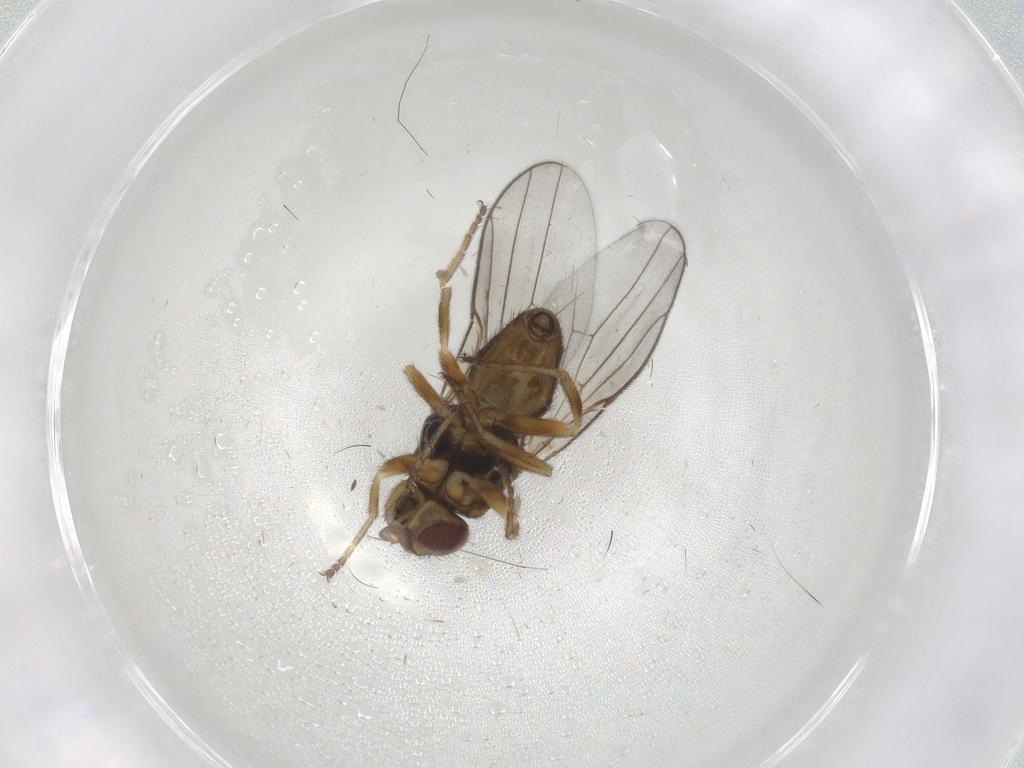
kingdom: Animalia
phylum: Arthropoda
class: Insecta
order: Diptera
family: Chloropidae
